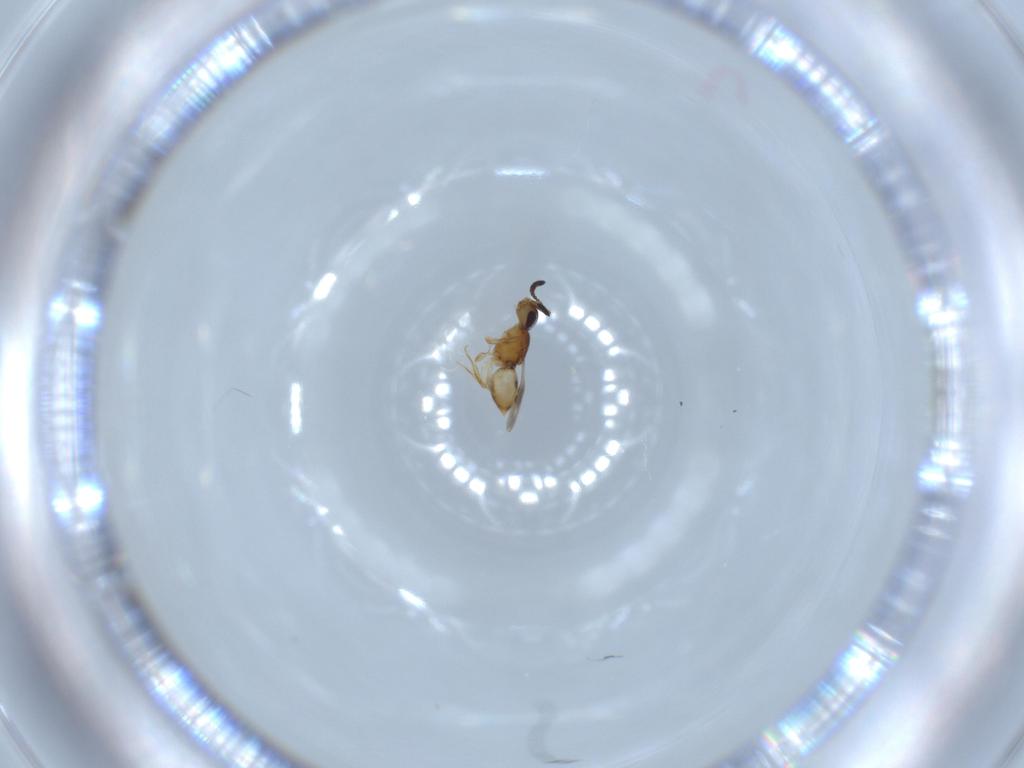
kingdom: Animalia
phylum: Arthropoda
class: Insecta
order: Hymenoptera
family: Ceraphronidae
